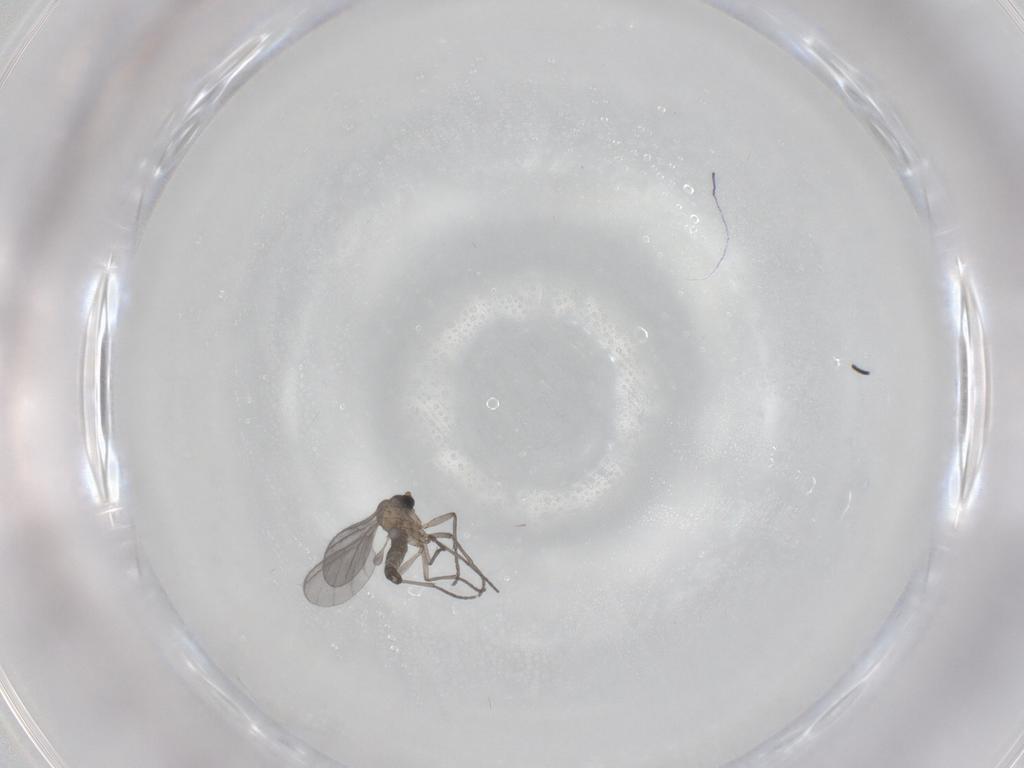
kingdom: Animalia
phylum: Arthropoda
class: Insecta
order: Diptera
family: Sciaridae
